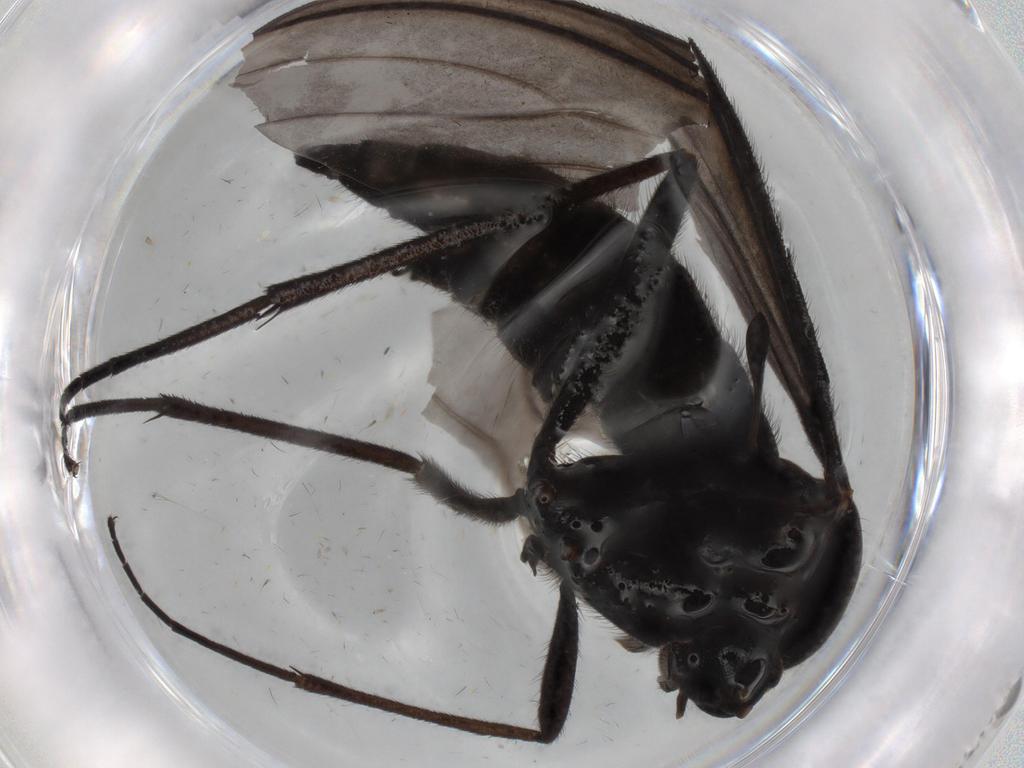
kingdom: Animalia
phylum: Arthropoda
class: Insecta
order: Diptera
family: Sciaridae
